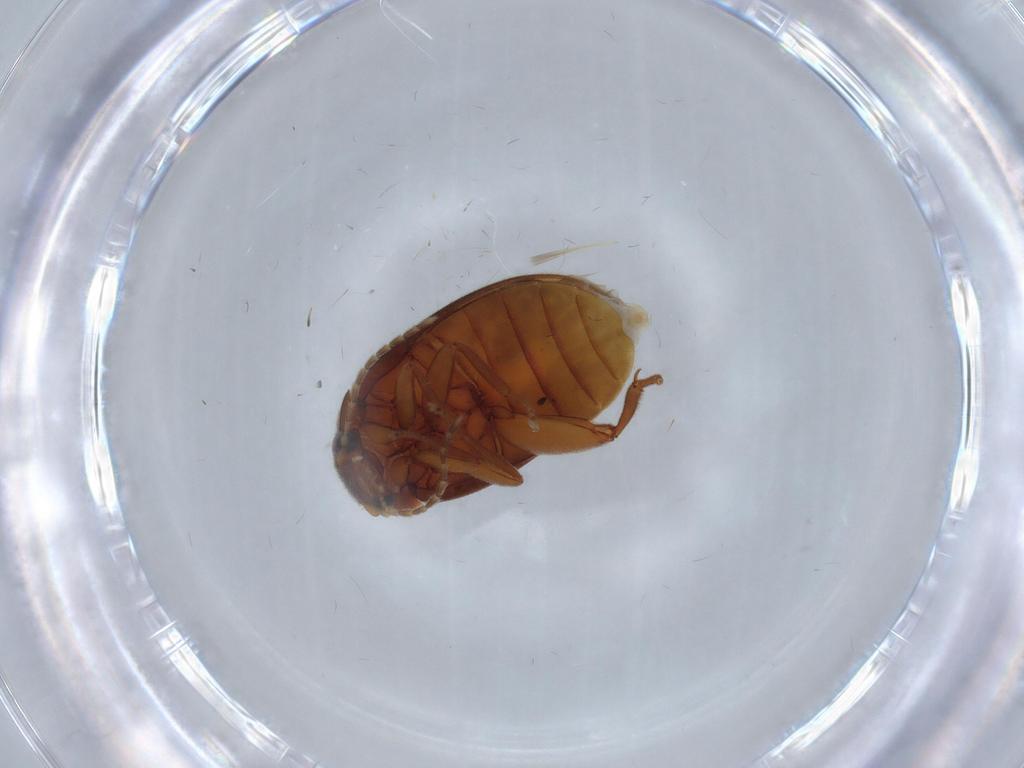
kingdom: Animalia
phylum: Arthropoda
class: Insecta
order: Coleoptera
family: Scirtidae
